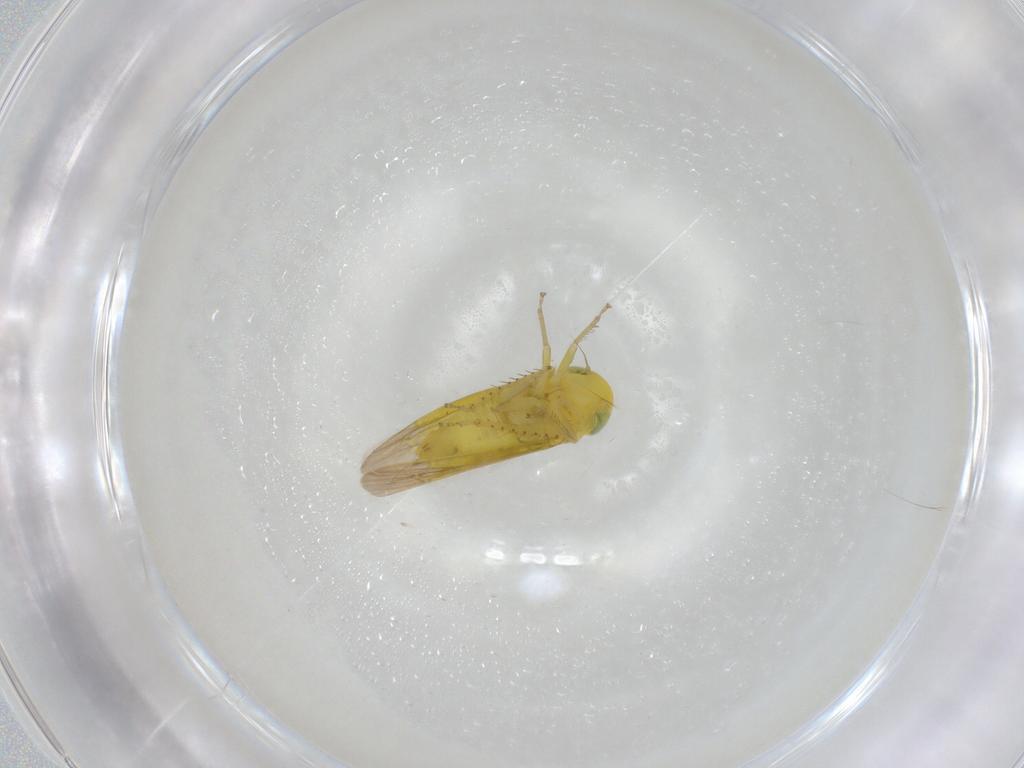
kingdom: Animalia
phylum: Arthropoda
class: Insecta
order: Hemiptera
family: Cicadellidae
